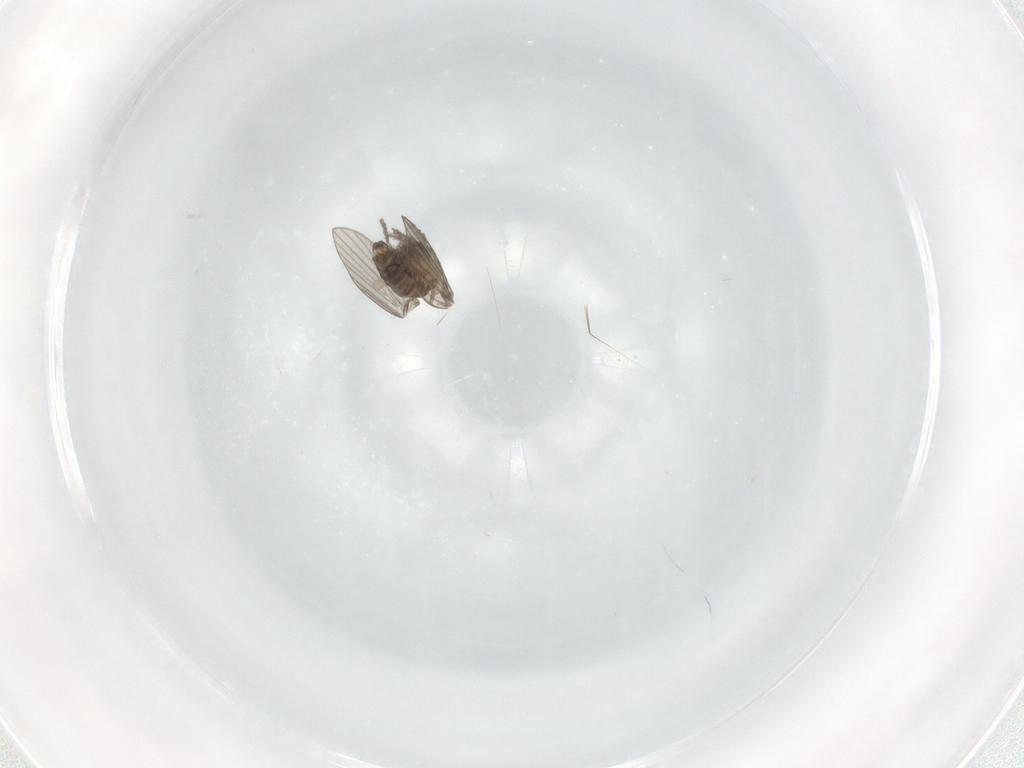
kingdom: Animalia
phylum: Arthropoda
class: Insecta
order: Diptera
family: Psychodidae
